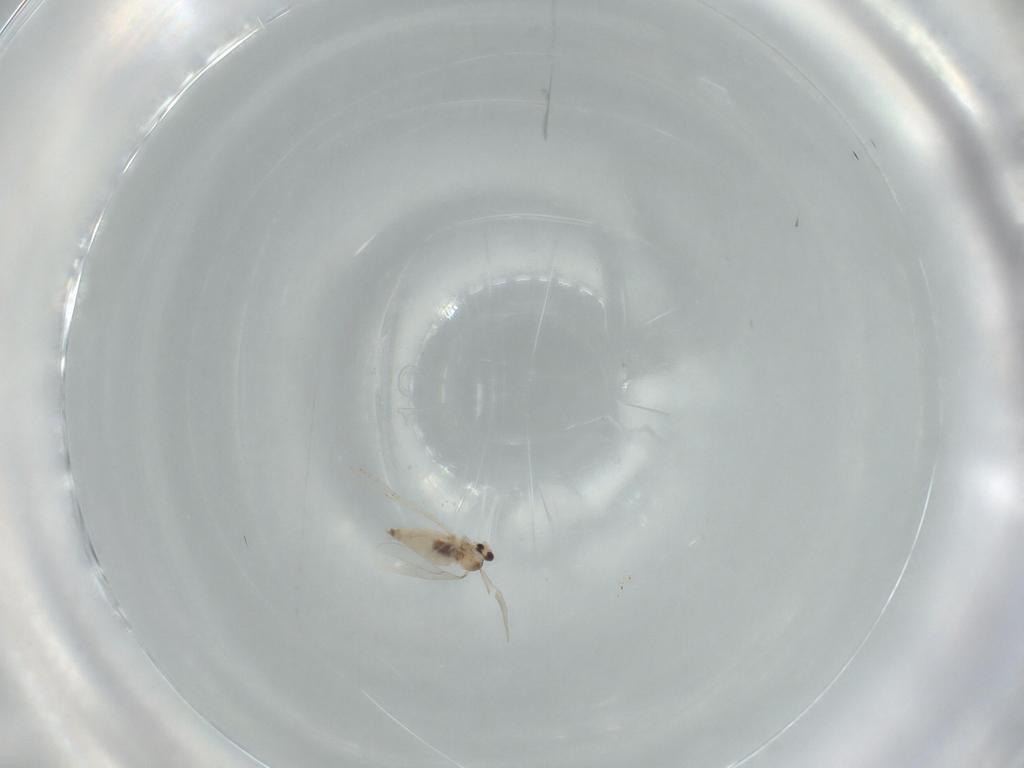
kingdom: Animalia
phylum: Arthropoda
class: Insecta
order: Diptera
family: Cecidomyiidae
